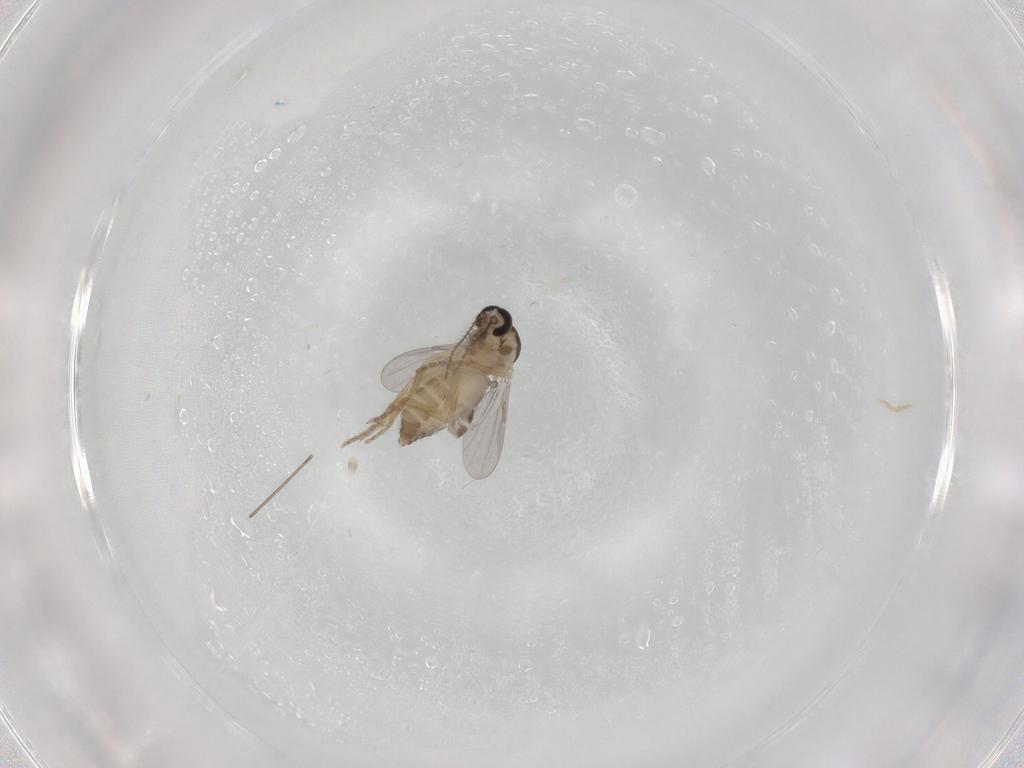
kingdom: Animalia
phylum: Arthropoda
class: Insecta
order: Diptera
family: Ceratopogonidae
